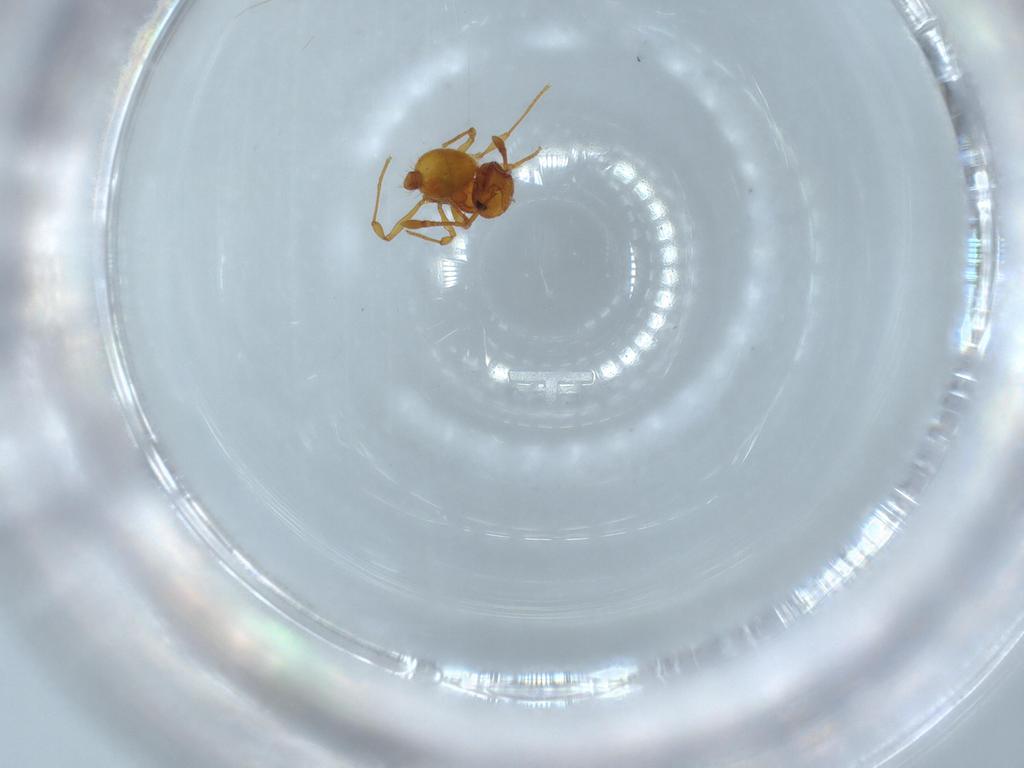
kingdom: Animalia
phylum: Arthropoda
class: Insecta
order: Hymenoptera
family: Formicidae
